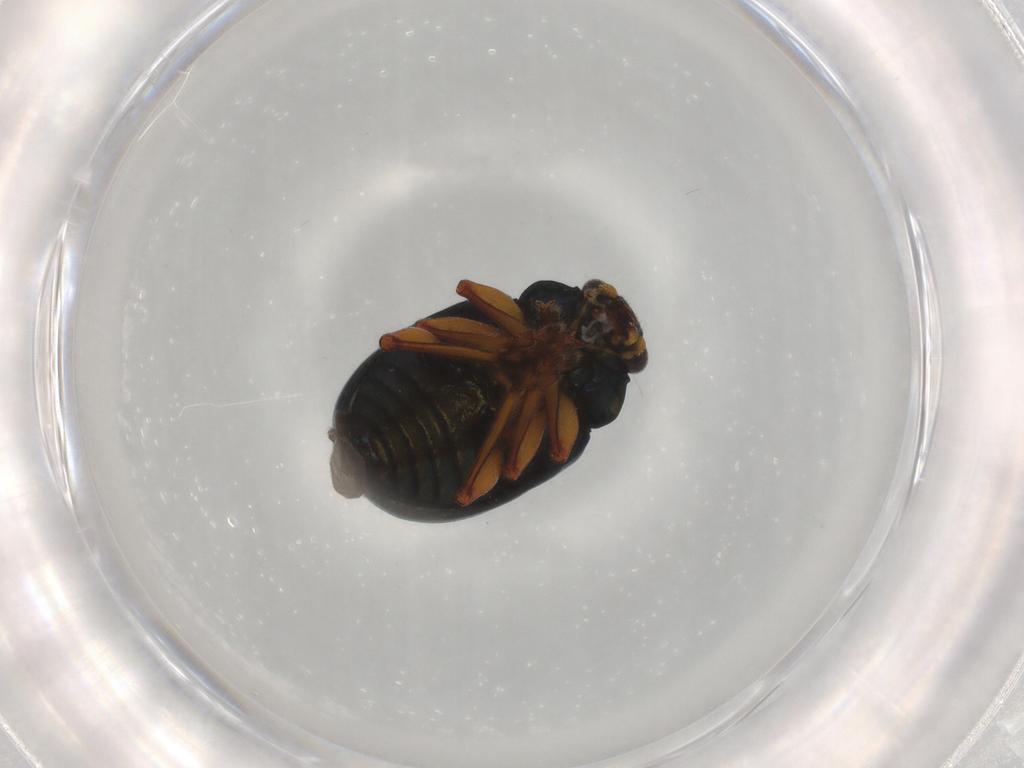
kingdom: Animalia
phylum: Arthropoda
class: Insecta
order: Coleoptera
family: Chrysomelidae
